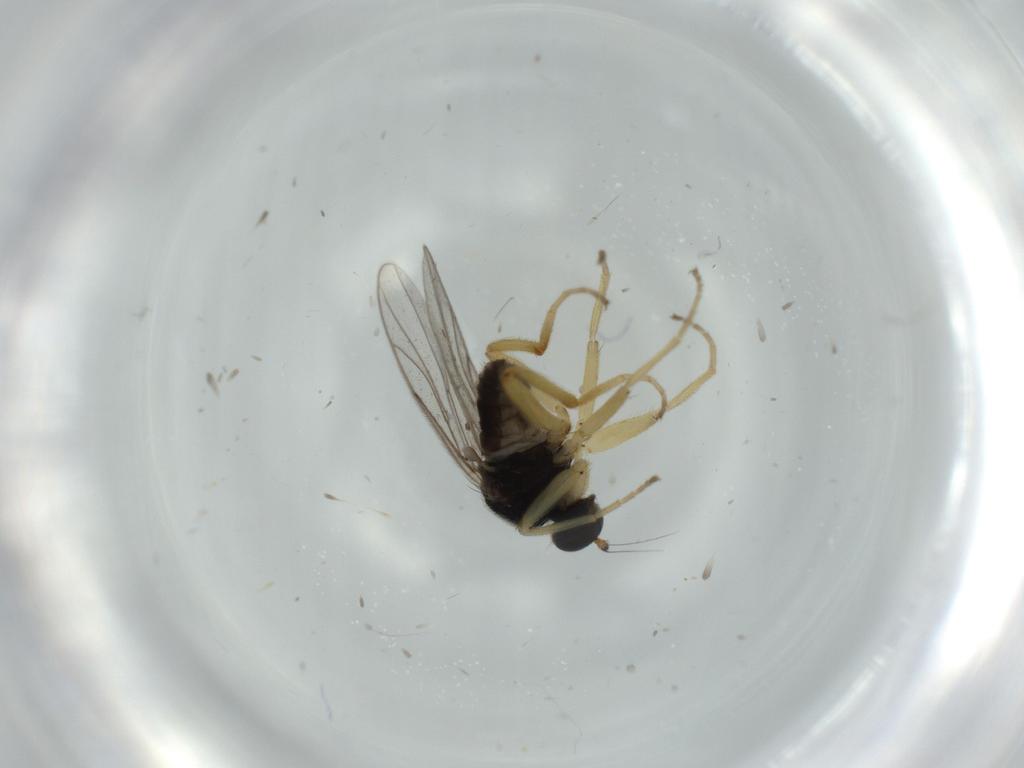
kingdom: Animalia
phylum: Arthropoda
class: Insecta
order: Diptera
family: Hybotidae
